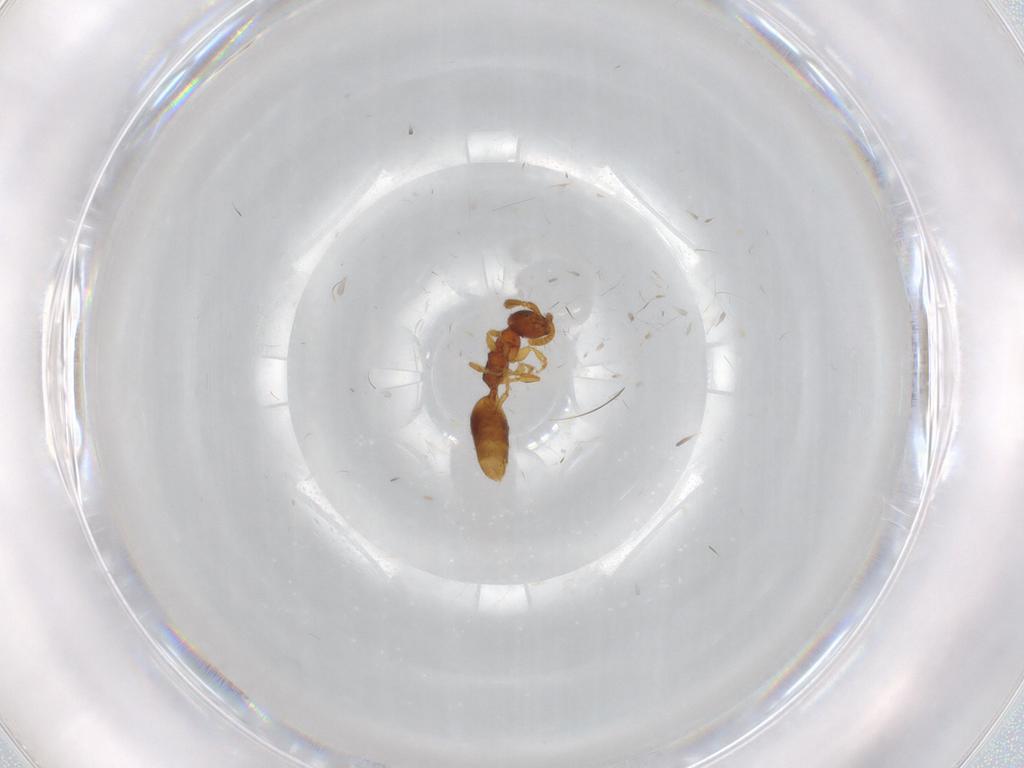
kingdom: Animalia
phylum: Arthropoda
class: Insecta
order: Hymenoptera
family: Bethylidae
